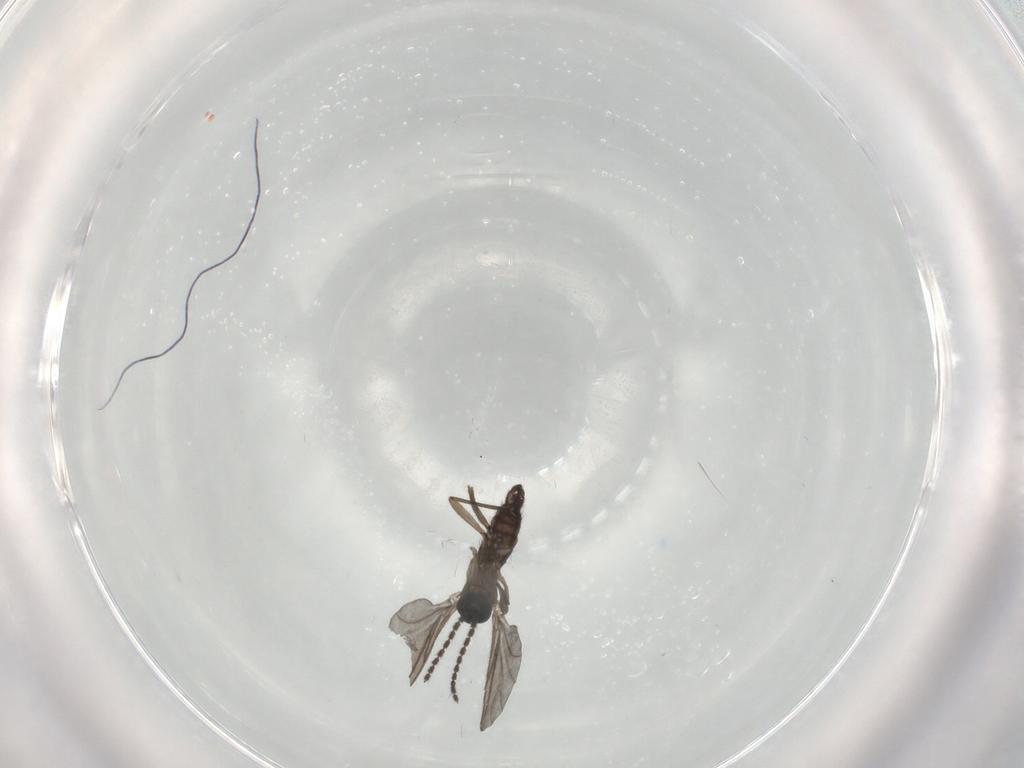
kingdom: Animalia
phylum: Arthropoda
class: Insecta
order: Diptera
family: Sciaridae
